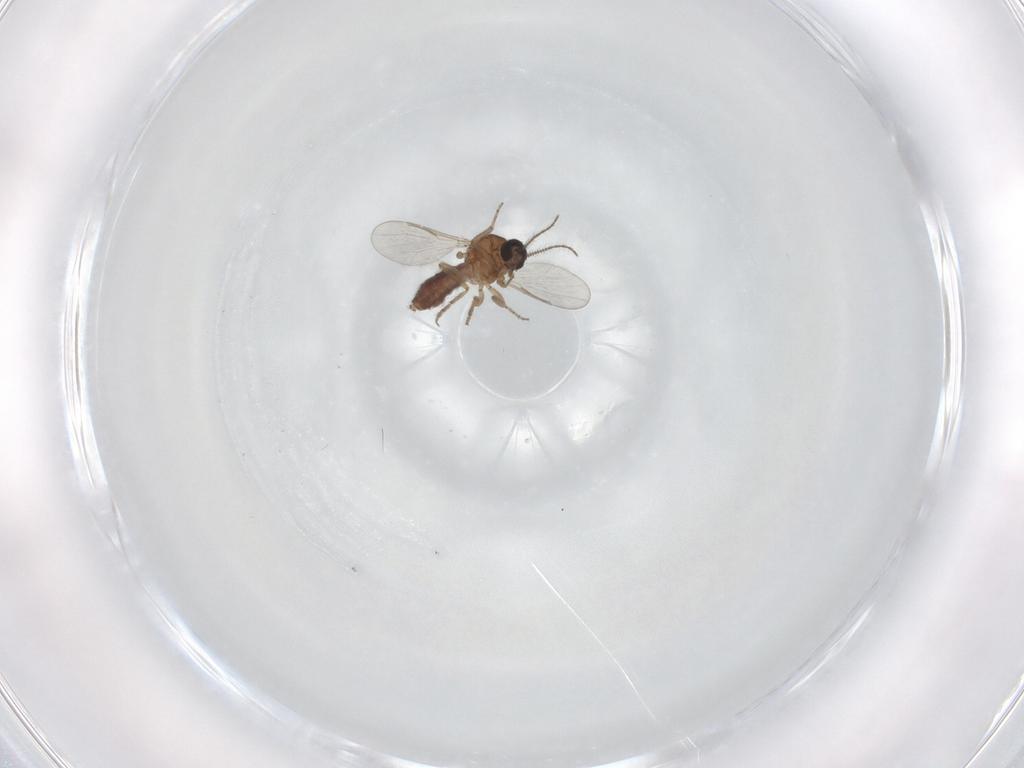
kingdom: Animalia
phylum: Arthropoda
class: Insecta
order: Diptera
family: Ceratopogonidae
